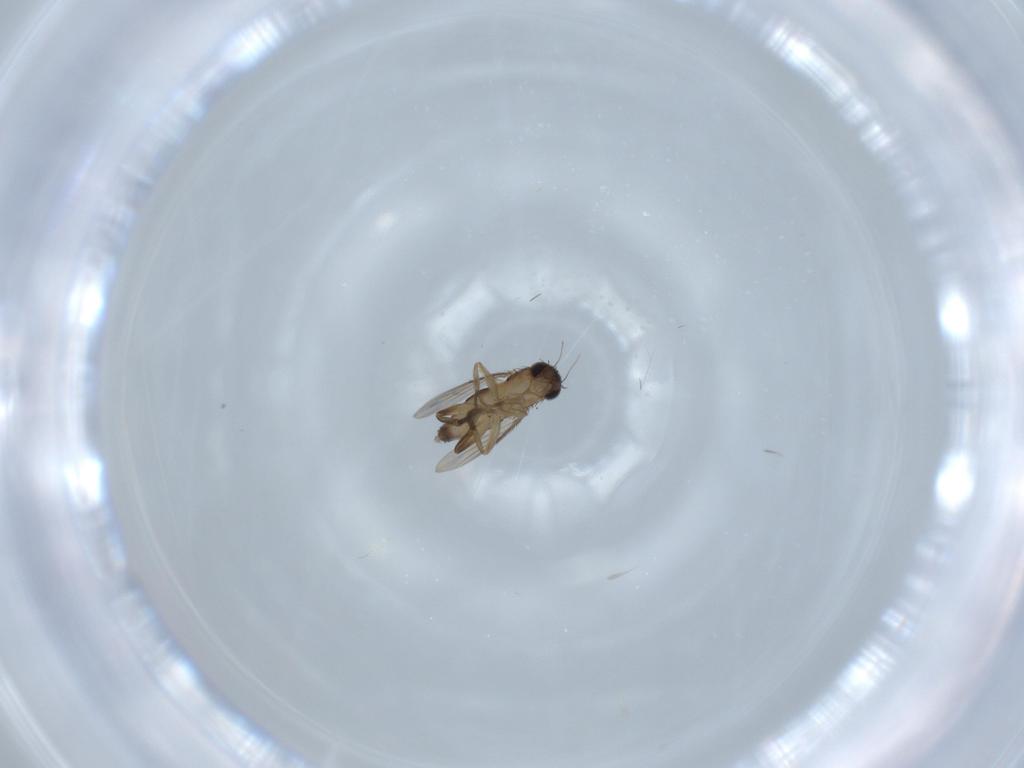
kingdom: Animalia
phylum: Arthropoda
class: Insecta
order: Diptera
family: Phoridae
